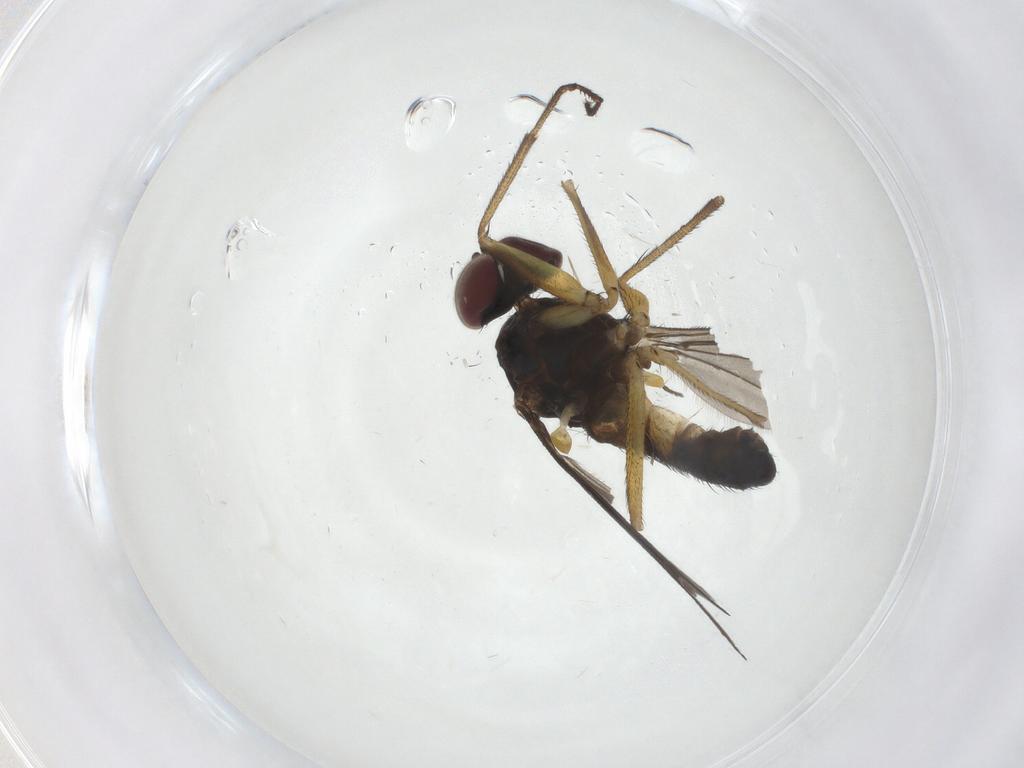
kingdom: Animalia
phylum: Arthropoda
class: Insecta
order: Diptera
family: Dolichopodidae
